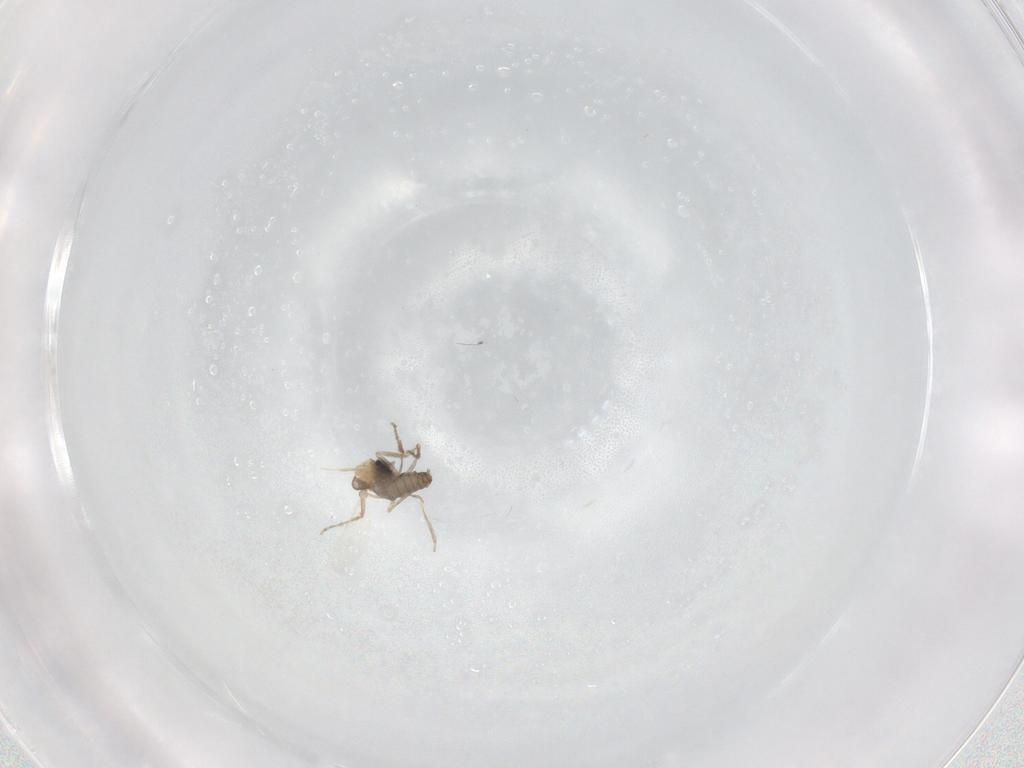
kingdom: Animalia
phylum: Arthropoda
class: Insecta
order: Diptera
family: Ceratopogonidae
